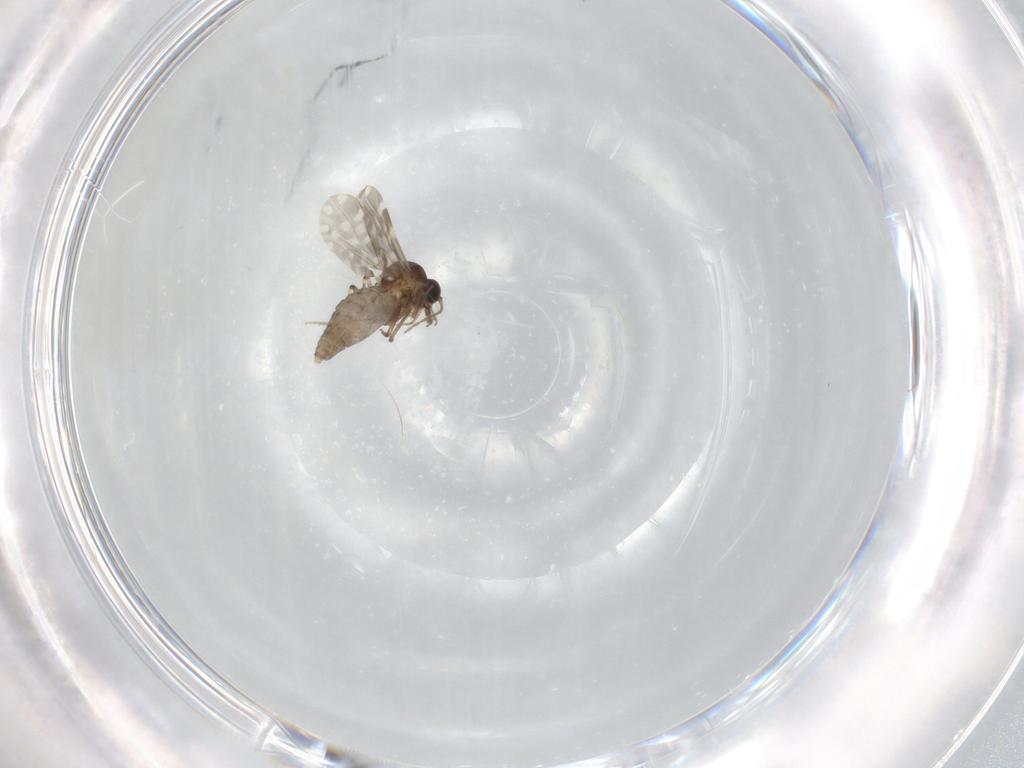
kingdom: Animalia
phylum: Arthropoda
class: Insecta
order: Diptera
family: Ceratopogonidae
